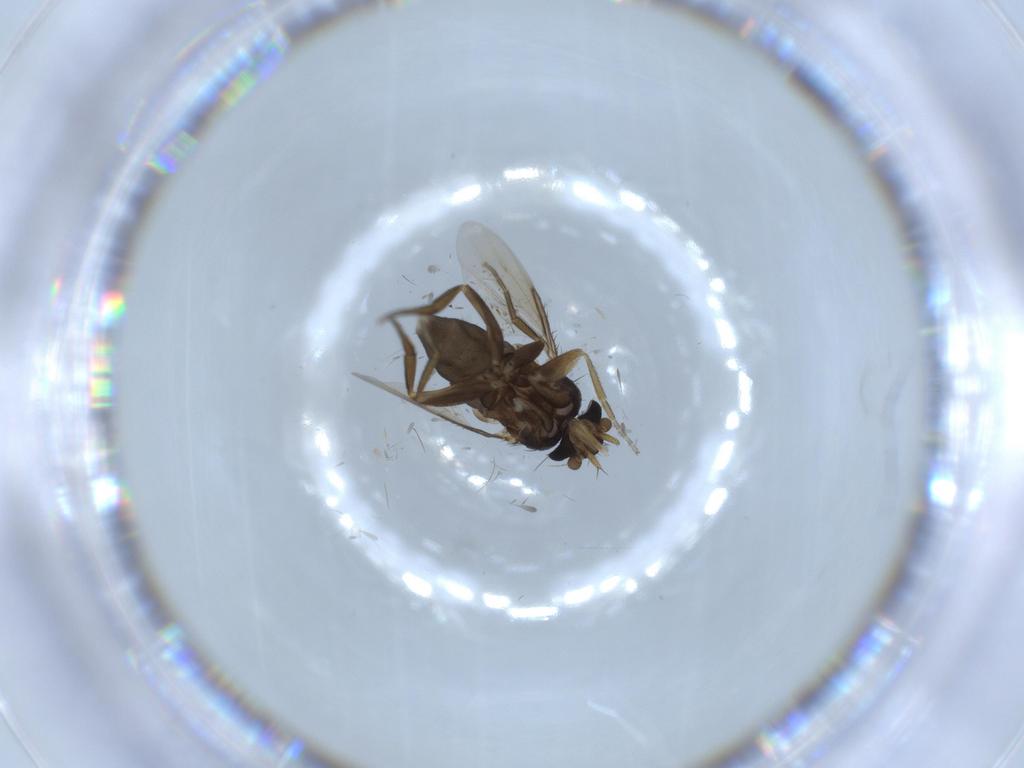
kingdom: Animalia
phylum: Arthropoda
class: Insecta
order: Diptera
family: Phoridae
